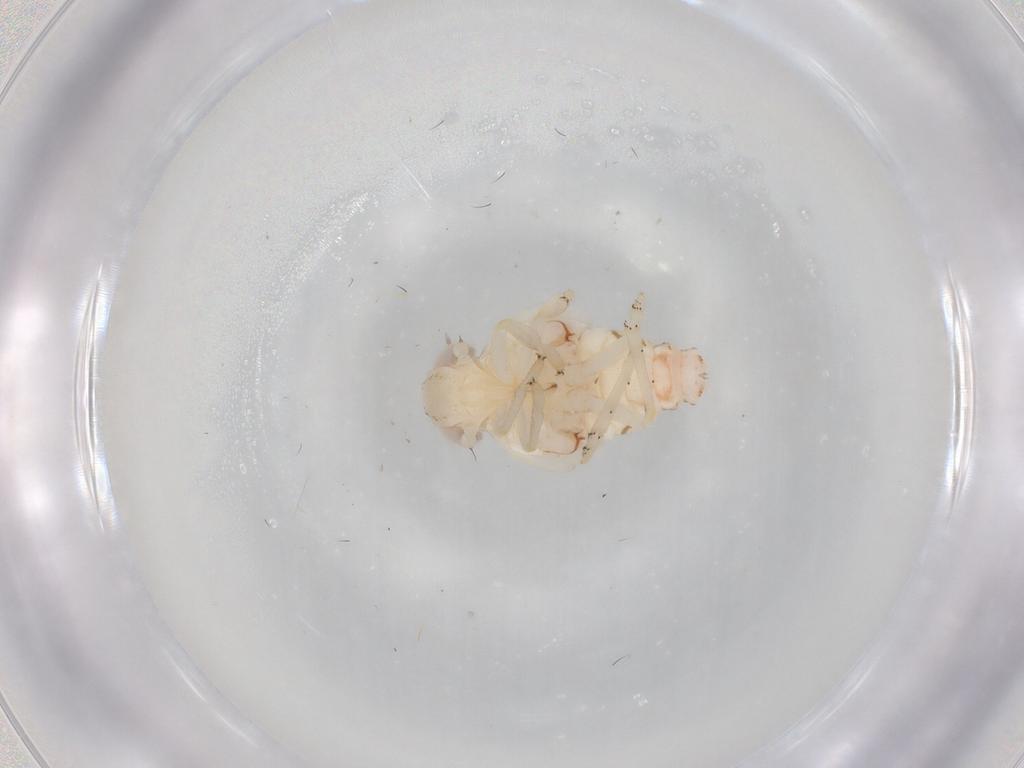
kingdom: Animalia
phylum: Arthropoda
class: Insecta
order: Hemiptera
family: Nogodinidae
